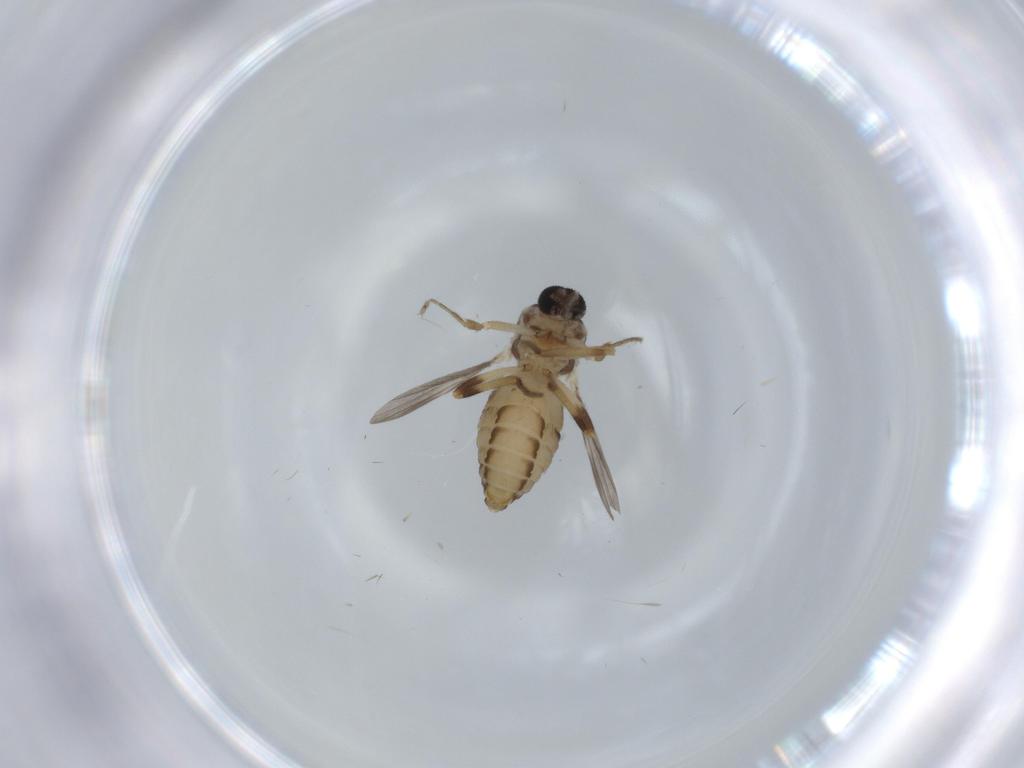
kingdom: Animalia
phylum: Arthropoda
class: Insecta
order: Diptera
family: Ceratopogonidae
